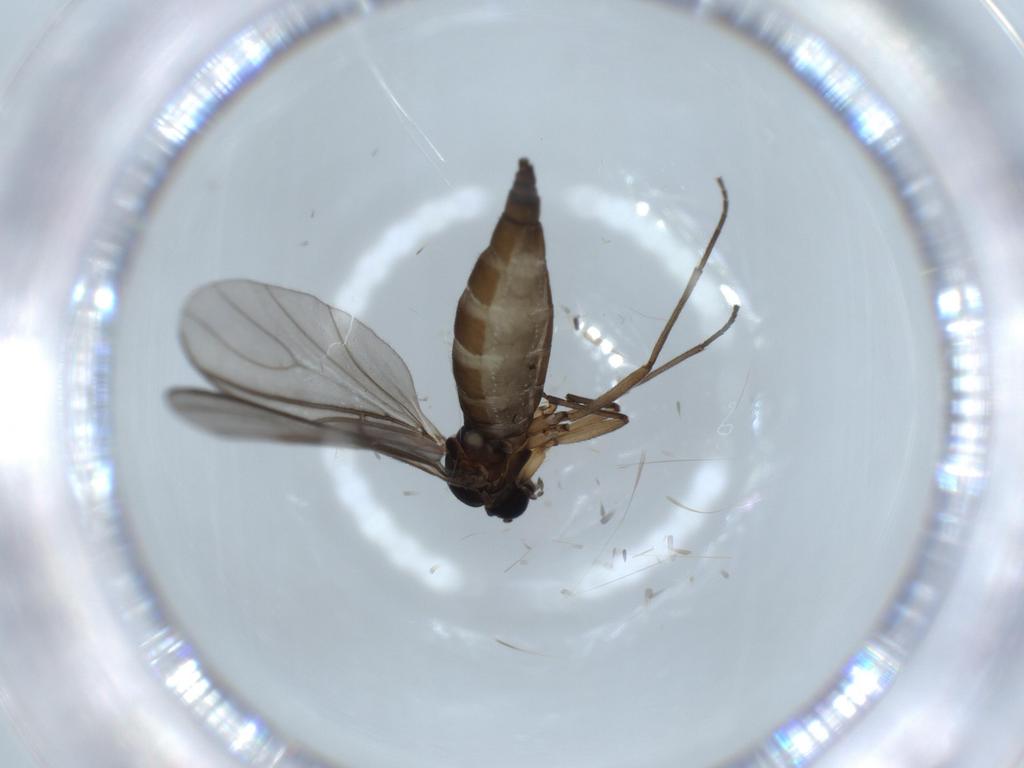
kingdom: Animalia
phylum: Arthropoda
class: Insecta
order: Diptera
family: Sciaridae
